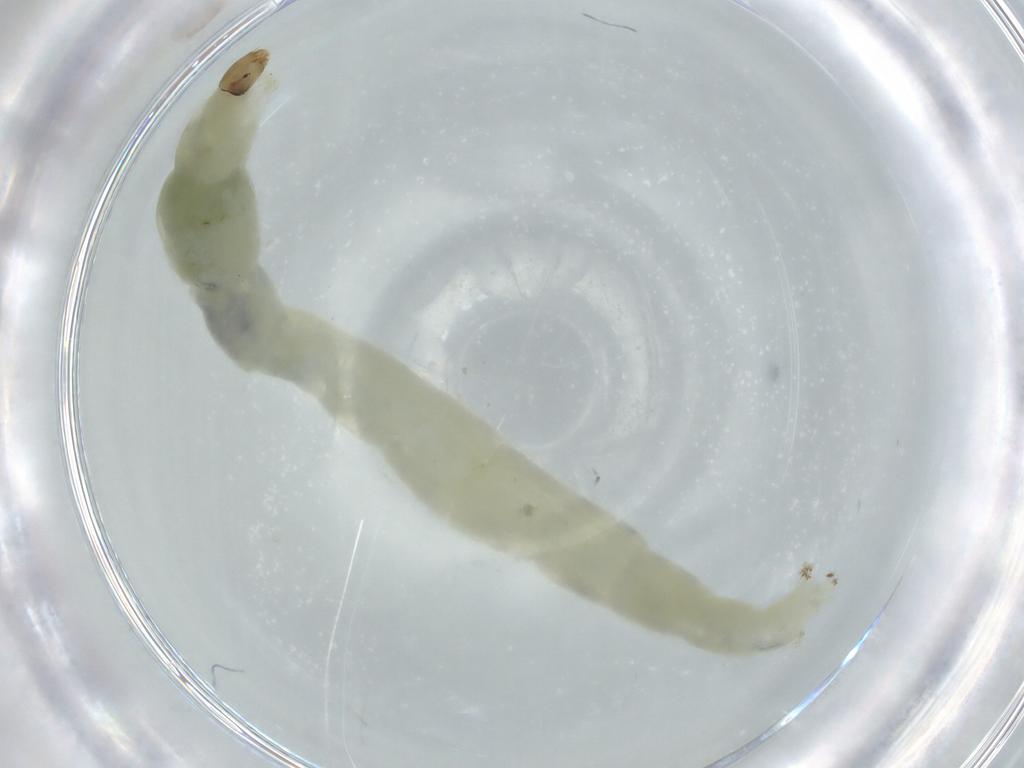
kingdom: Animalia
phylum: Arthropoda
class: Insecta
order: Diptera
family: Chironomidae
